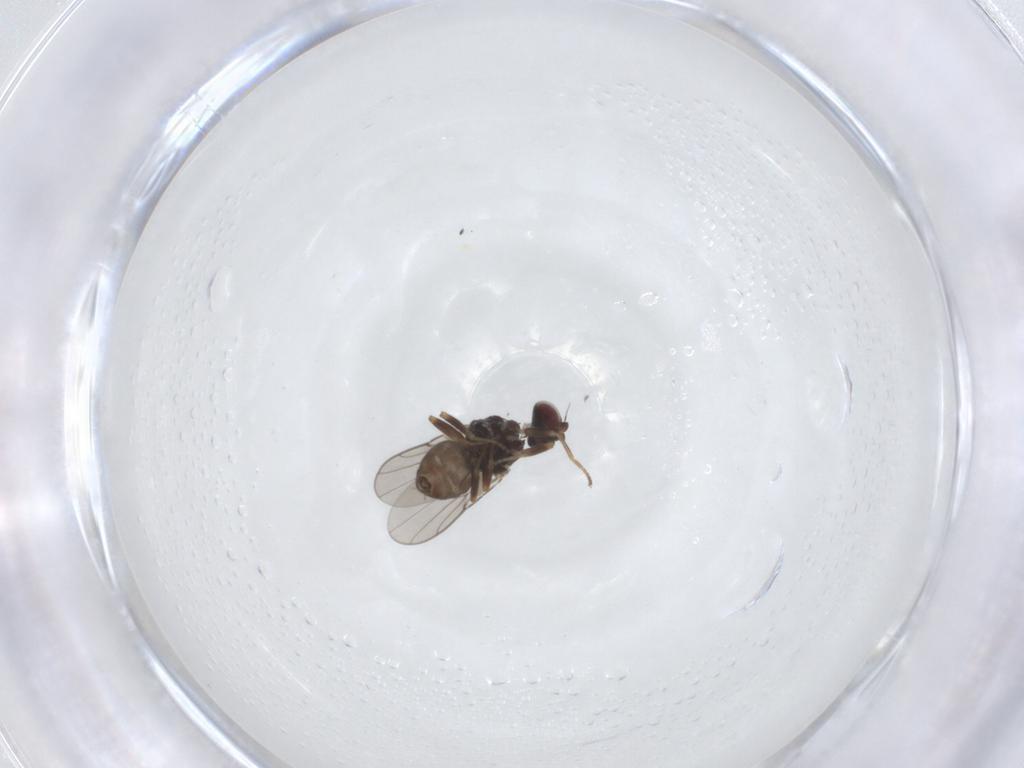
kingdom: Animalia
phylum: Arthropoda
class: Insecta
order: Diptera
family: Chloropidae
